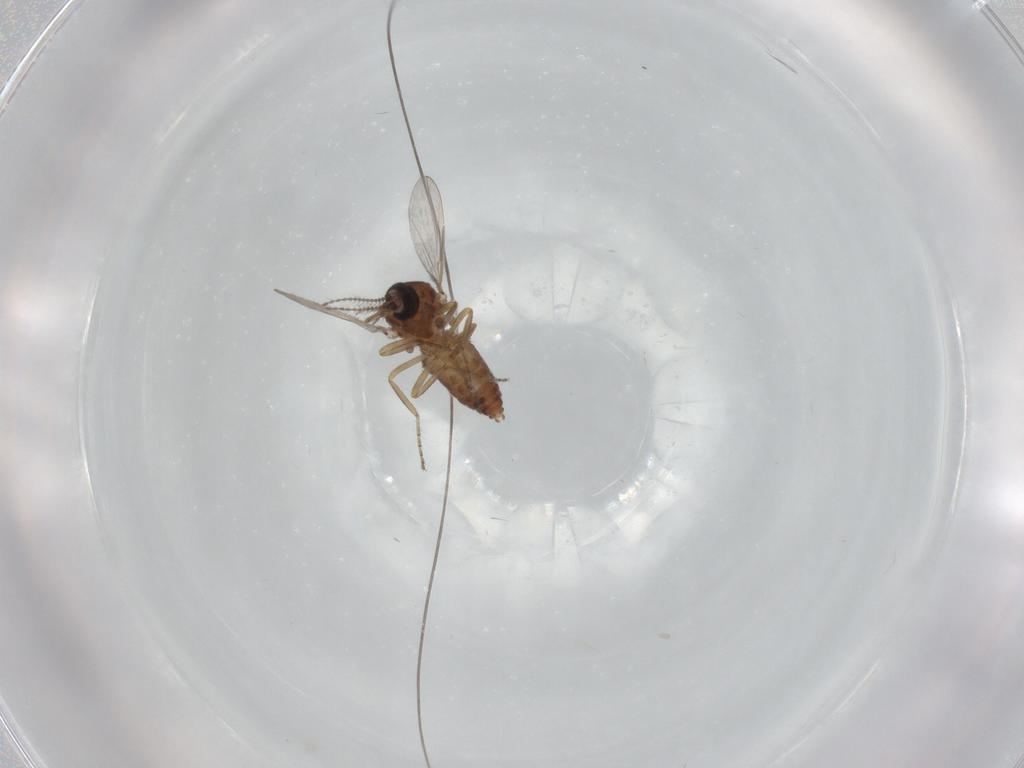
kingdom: Animalia
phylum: Arthropoda
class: Insecta
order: Diptera
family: Ceratopogonidae
